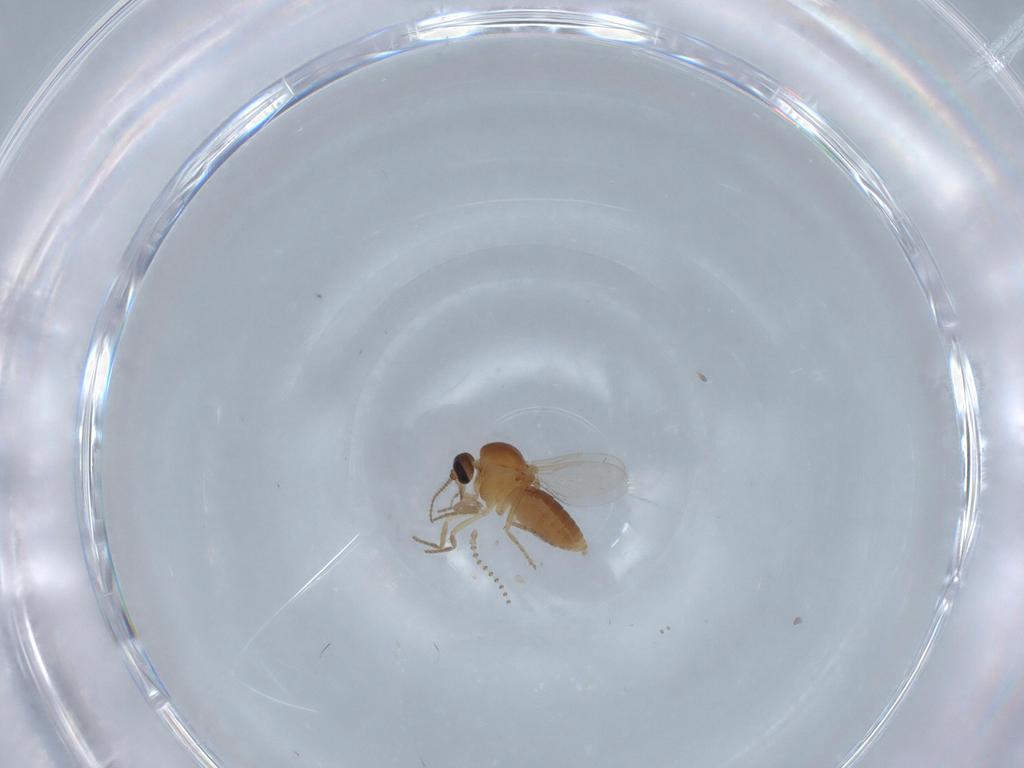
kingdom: Animalia
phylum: Arthropoda
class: Insecta
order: Diptera
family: Ceratopogonidae
